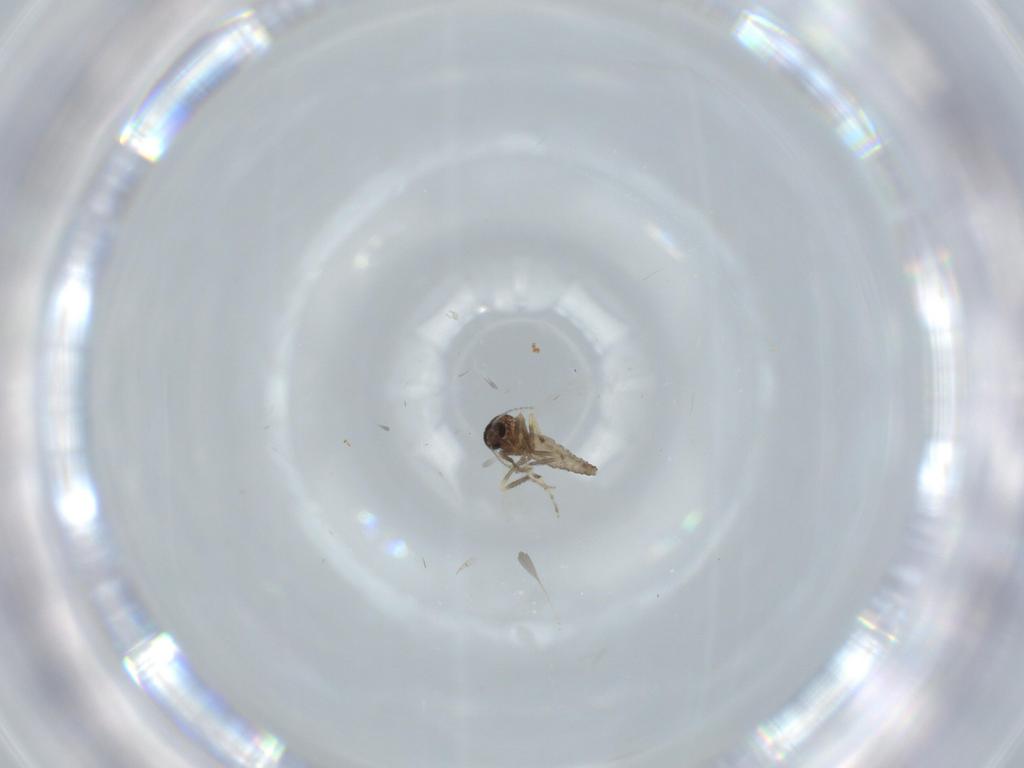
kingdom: Animalia
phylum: Arthropoda
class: Insecta
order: Diptera
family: Ceratopogonidae
